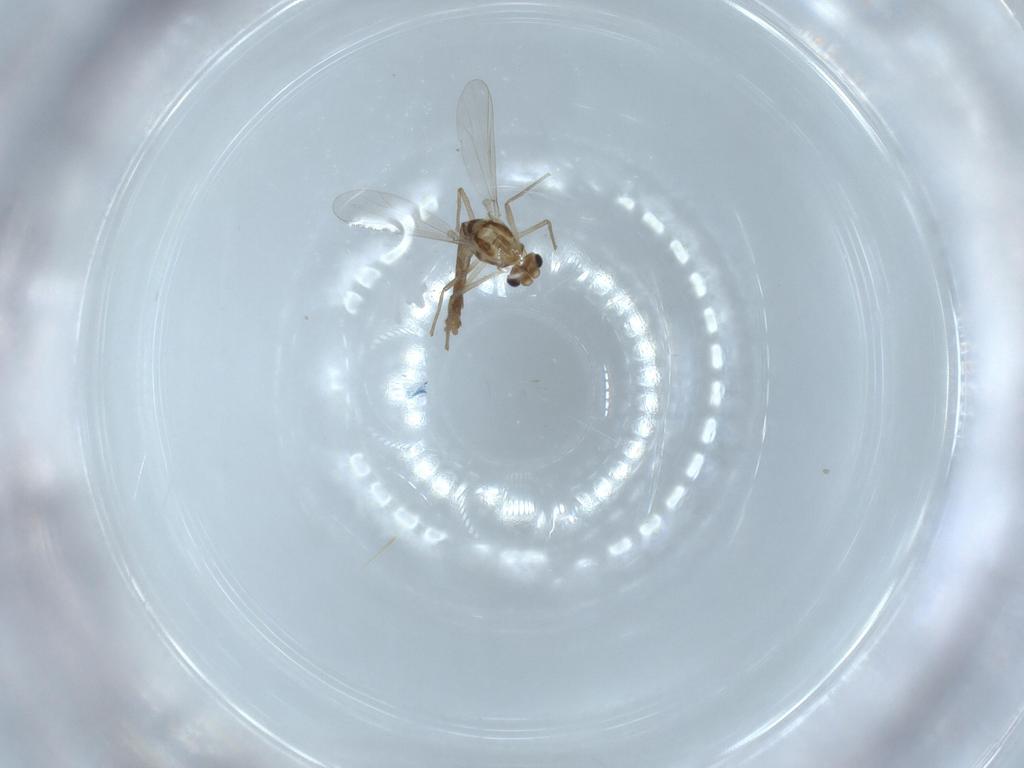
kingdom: Animalia
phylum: Arthropoda
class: Insecta
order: Diptera
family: Chironomidae
